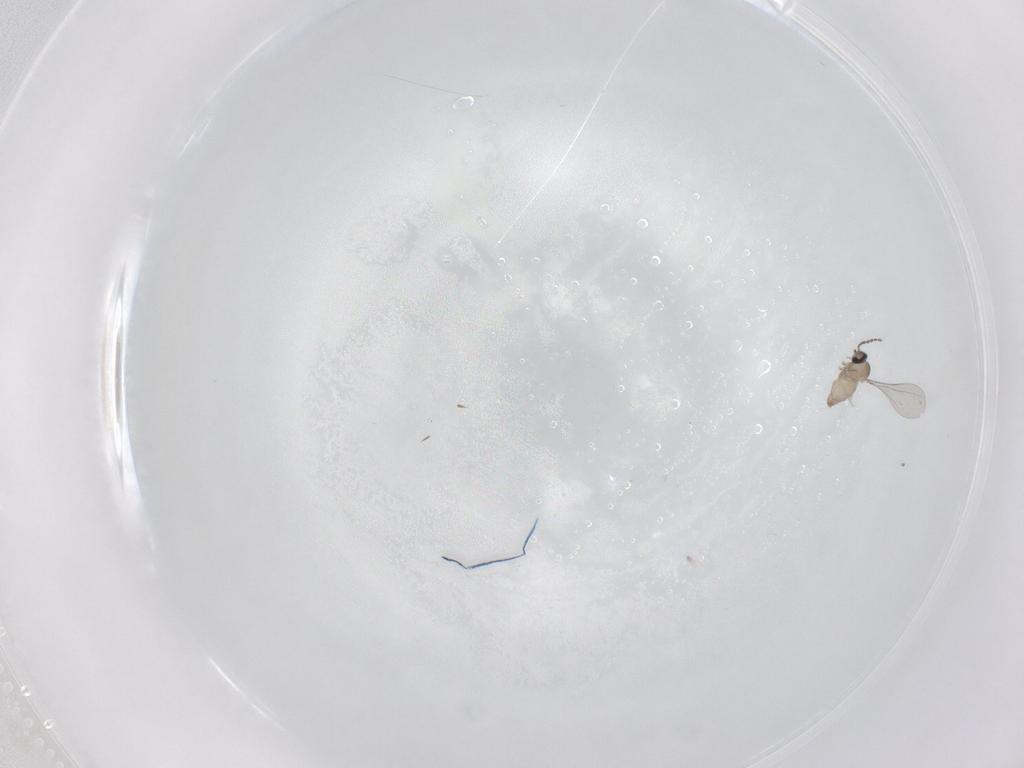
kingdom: Animalia
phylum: Arthropoda
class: Insecta
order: Diptera
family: Cecidomyiidae
